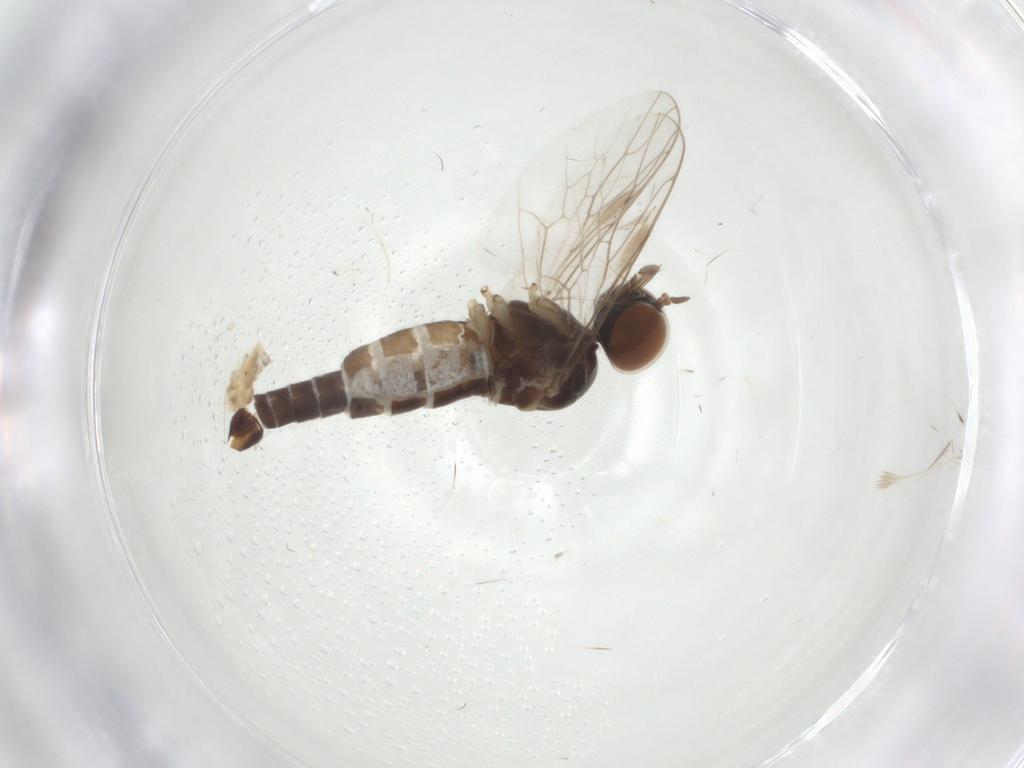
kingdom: Animalia
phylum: Arthropoda
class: Insecta
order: Diptera
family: Scenopinidae
